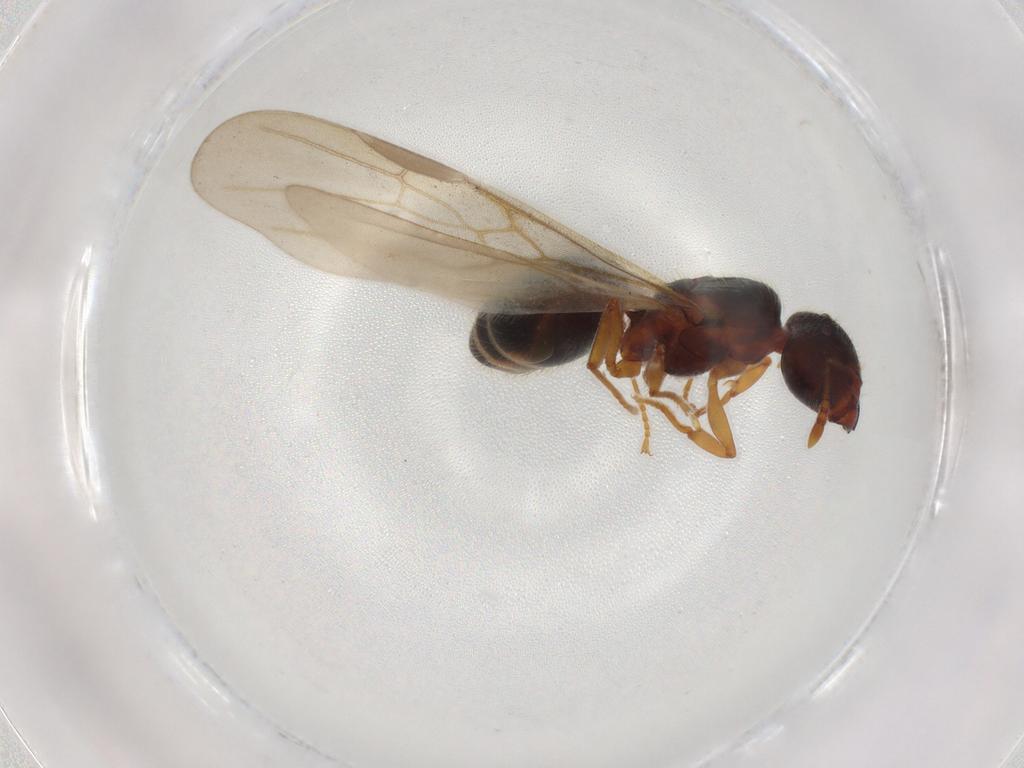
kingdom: Animalia
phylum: Arthropoda
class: Insecta
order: Hymenoptera
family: Formicidae
